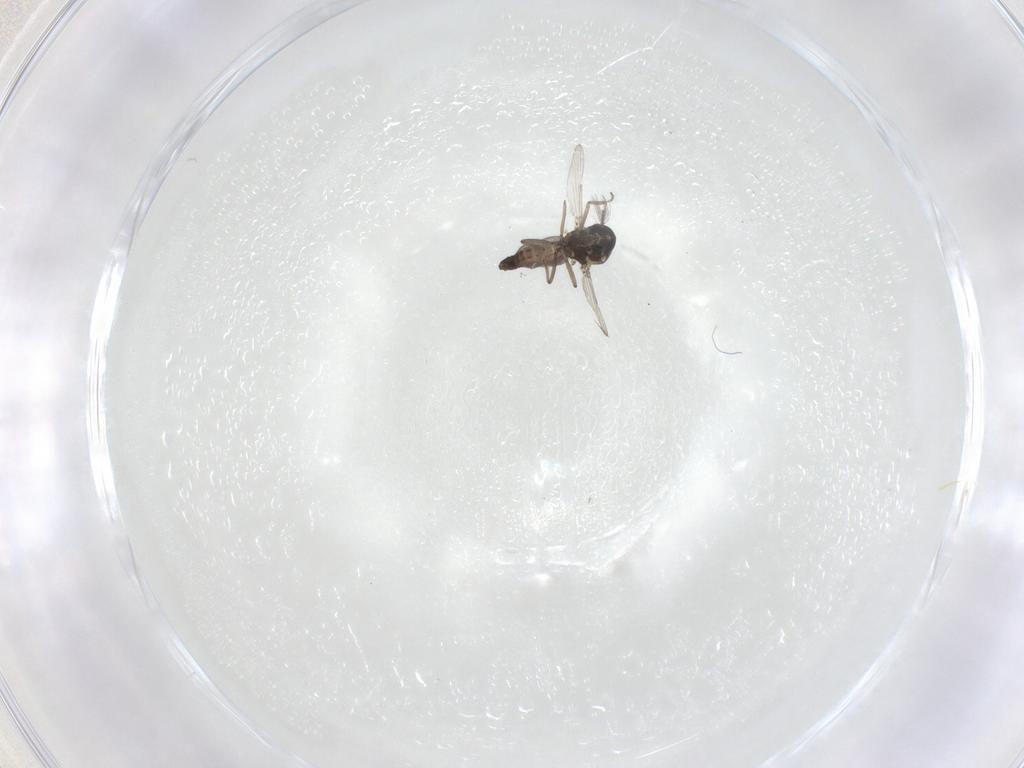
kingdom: Animalia
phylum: Arthropoda
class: Insecta
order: Diptera
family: Ceratopogonidae
